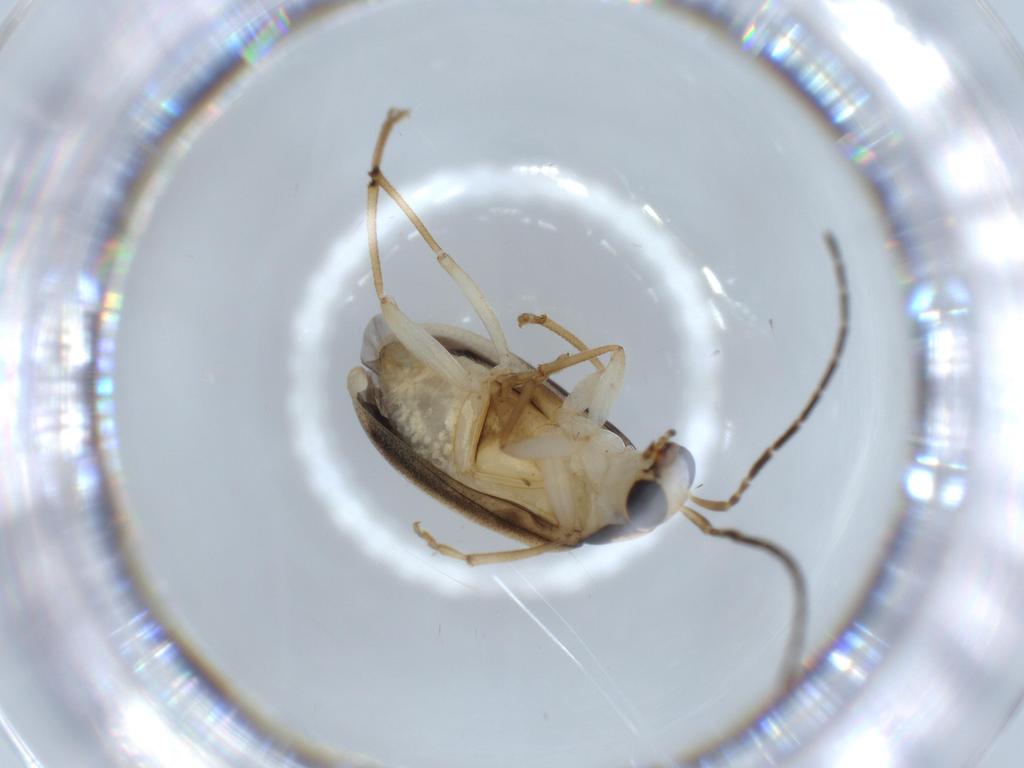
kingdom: Animalia
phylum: Arthropoda
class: Insecta
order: Coleoptera
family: Chrysomelidae
